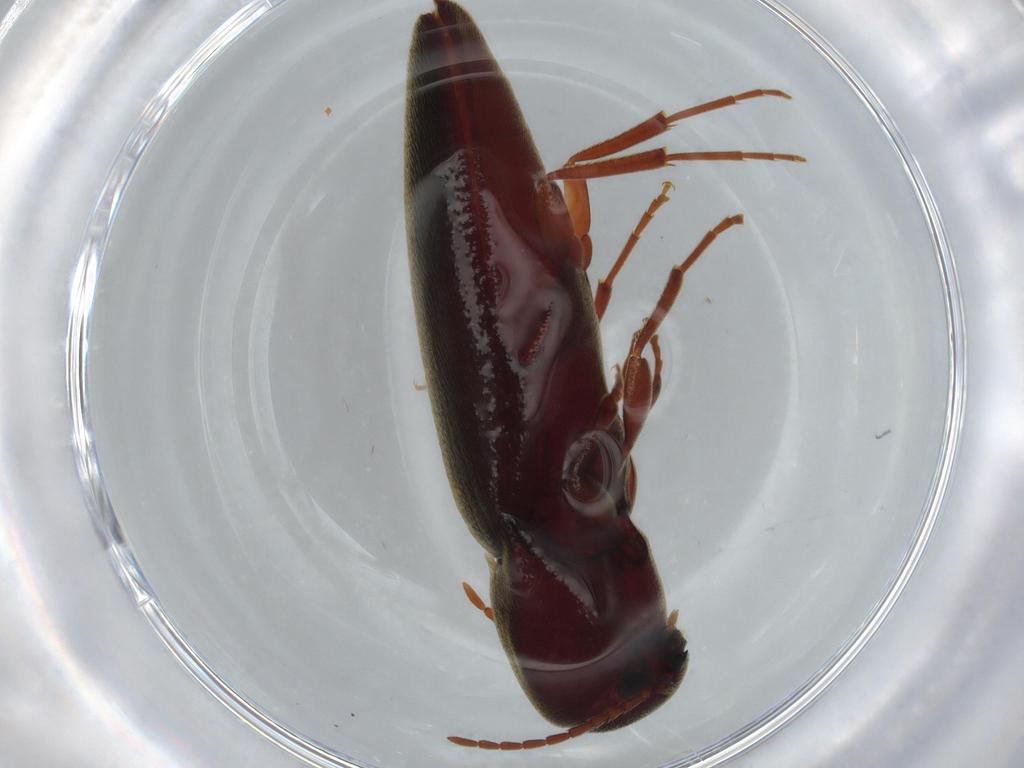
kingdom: Animalia
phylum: Arthropoda
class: Insecta
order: Coleoptera
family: Eucnemidae
